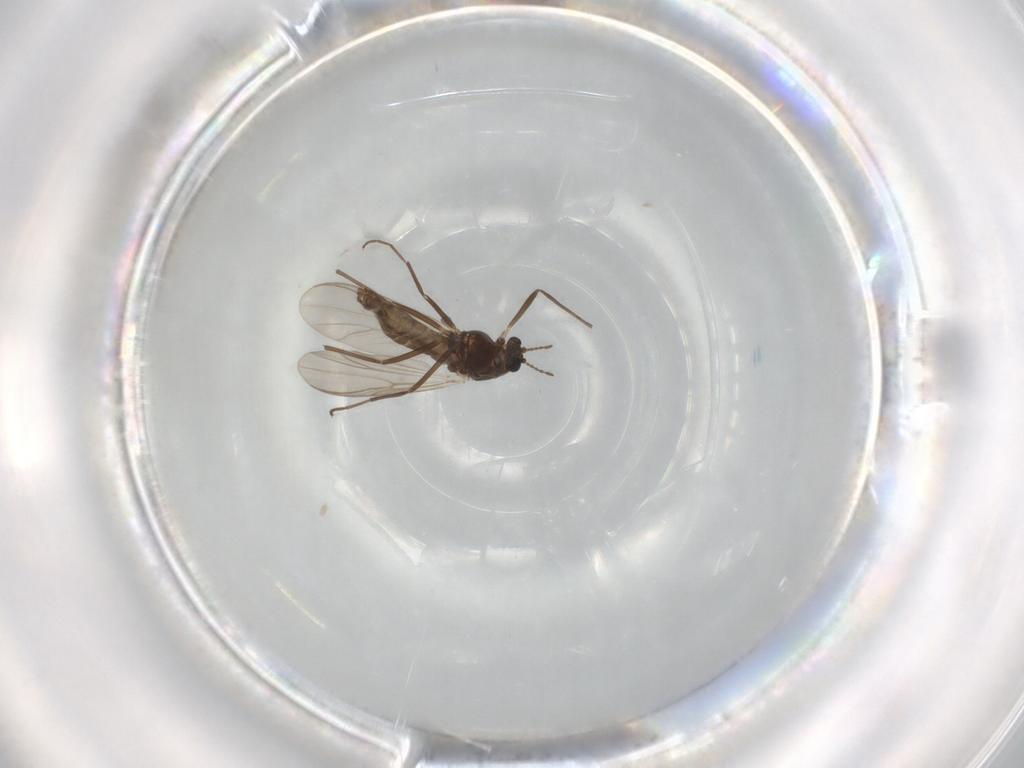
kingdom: Animalia
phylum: Arthropoda
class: Insecta
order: Diptera
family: Chironomidae
